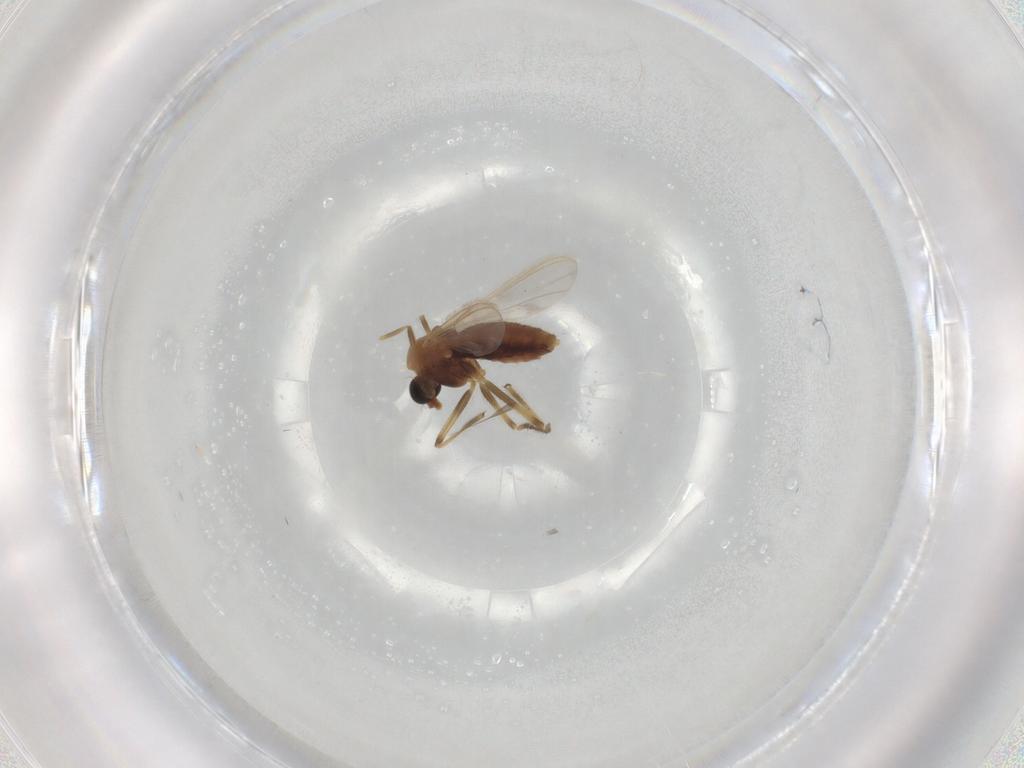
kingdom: Animalia
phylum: Arthropoda
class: Insecta
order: Diptera
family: Chironomidae
